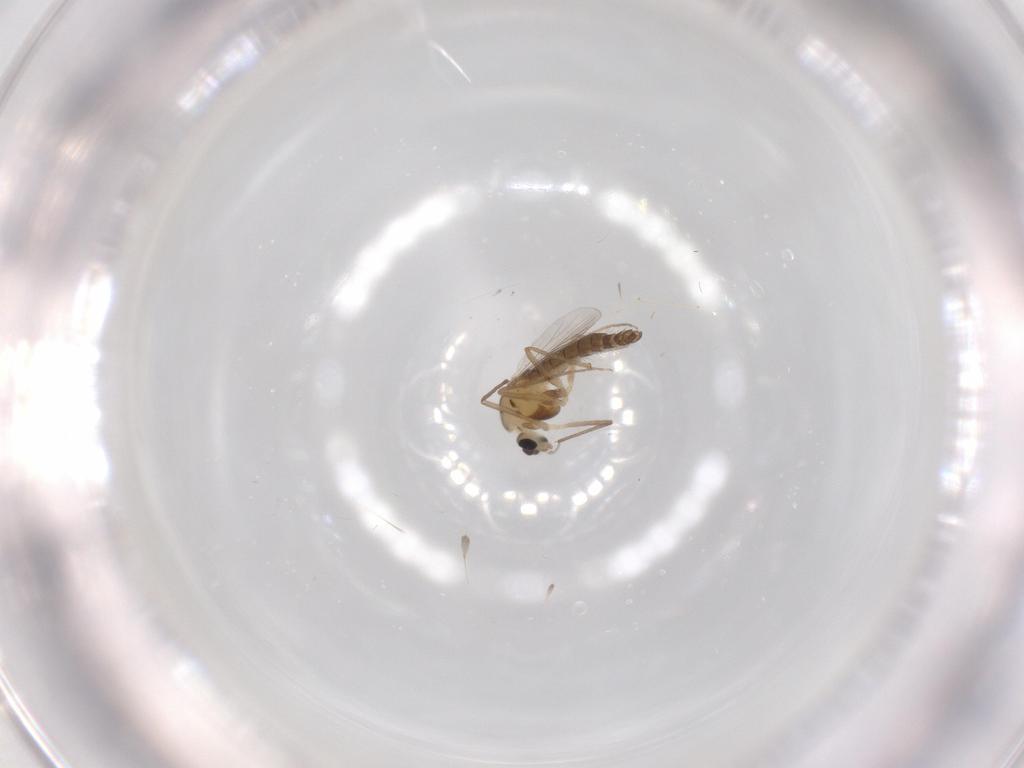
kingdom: Animalia
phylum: Arthropoda
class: Insecta
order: Diptera
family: Chironomidae
